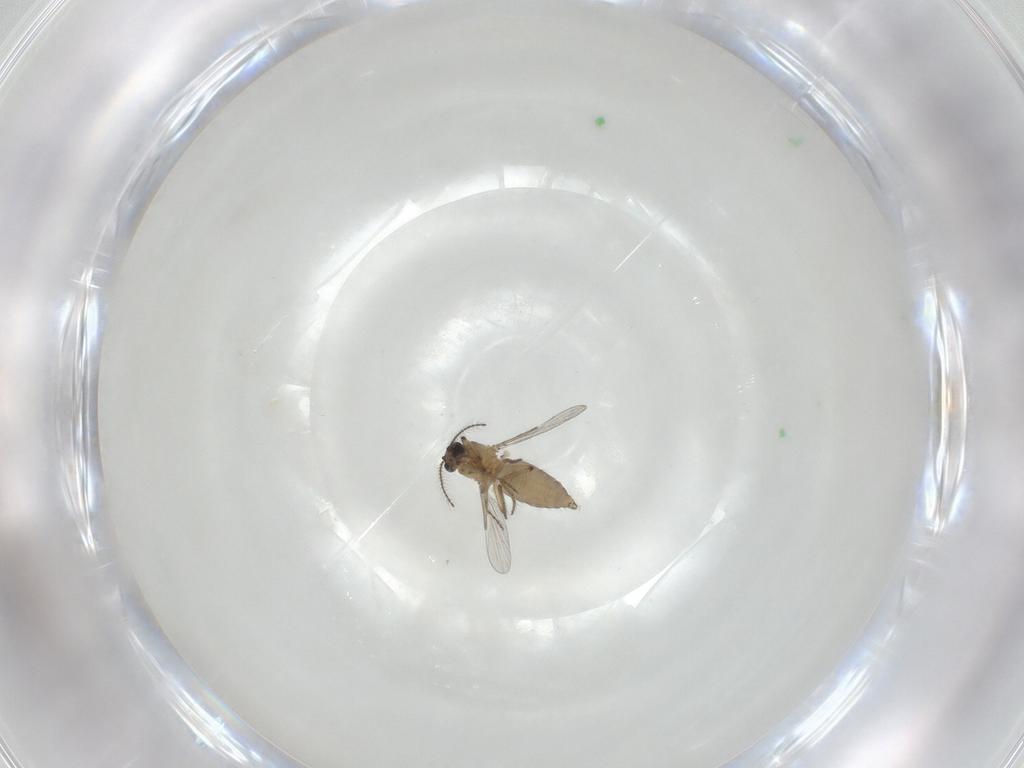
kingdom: Animalia
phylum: Arthropoda
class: Insecta
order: Diptera
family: Ceratopogonidae
